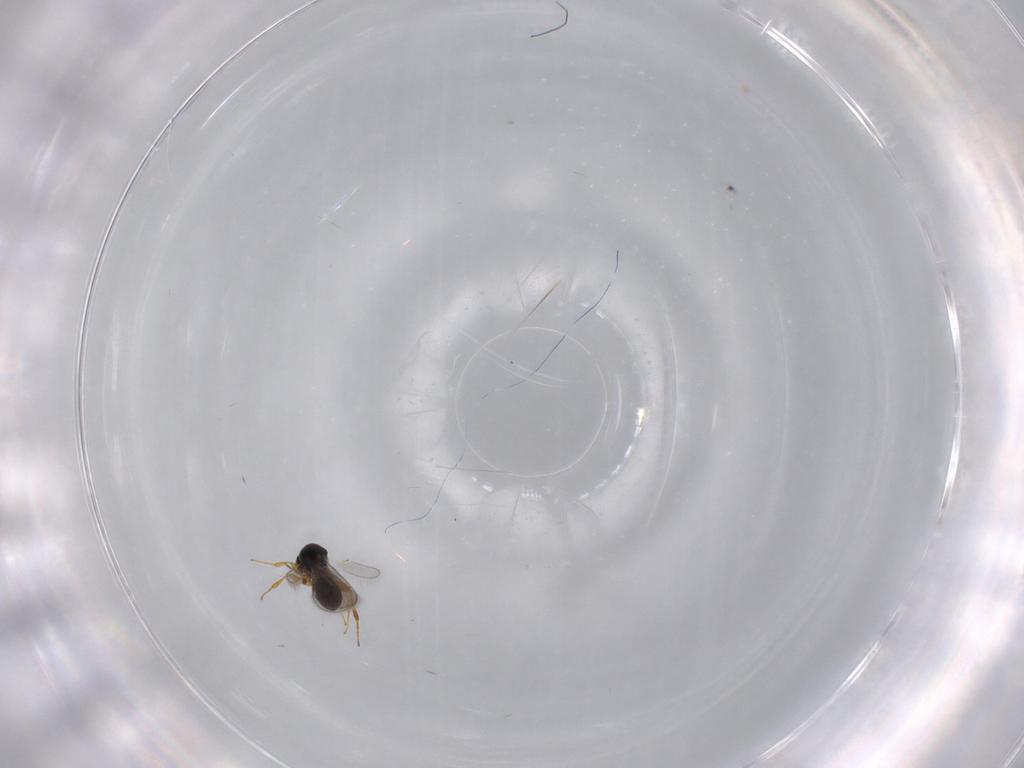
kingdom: Animalia
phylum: Arthropoda
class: Insecta
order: Hymenoptera
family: Platygastridae
